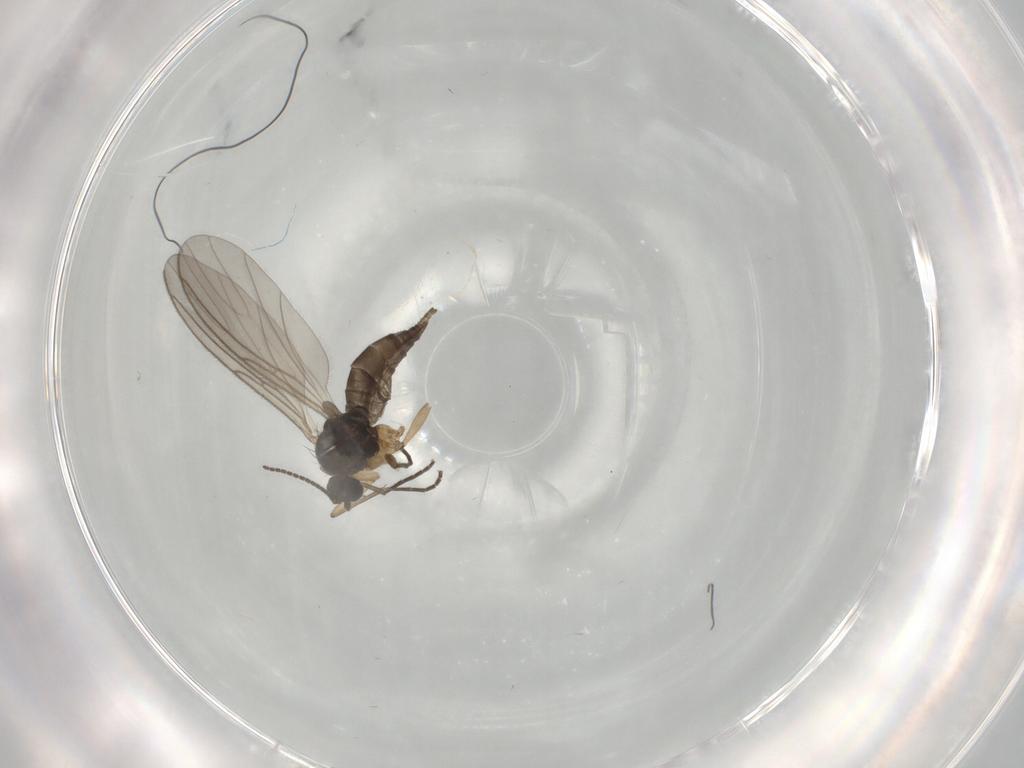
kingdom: Animalia
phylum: Arthropoda
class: Insecta
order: Diptera
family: Sciaridae
